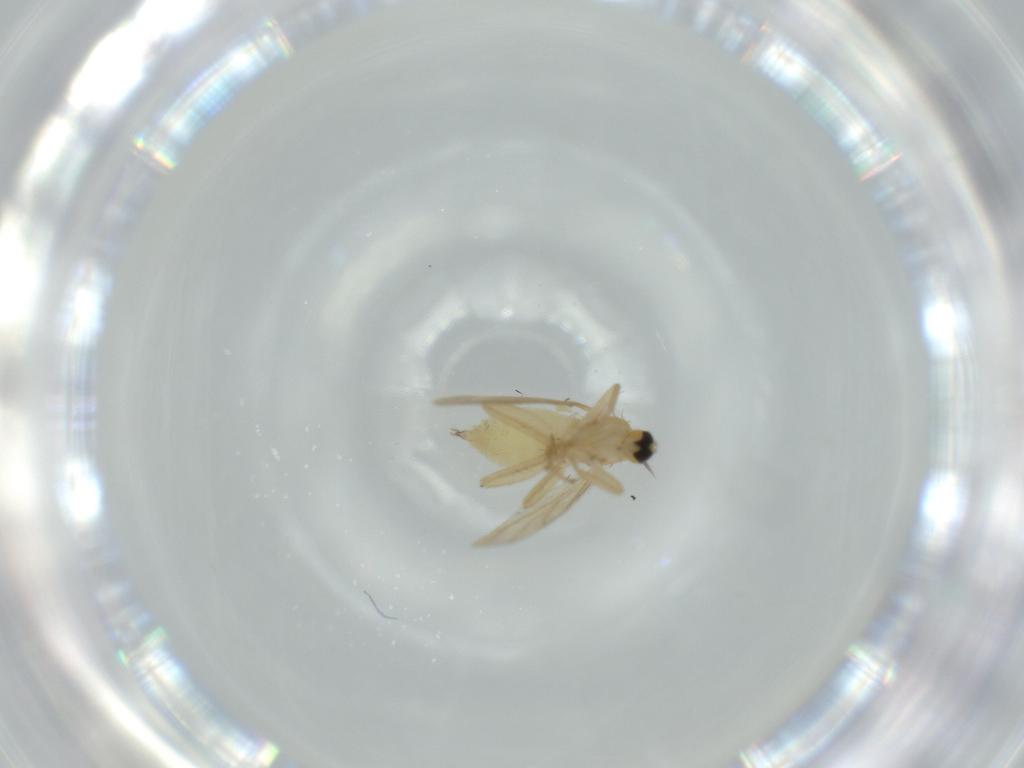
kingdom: Animalia
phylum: Arthropoda
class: Insecta
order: Diptera
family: Hybotidae
